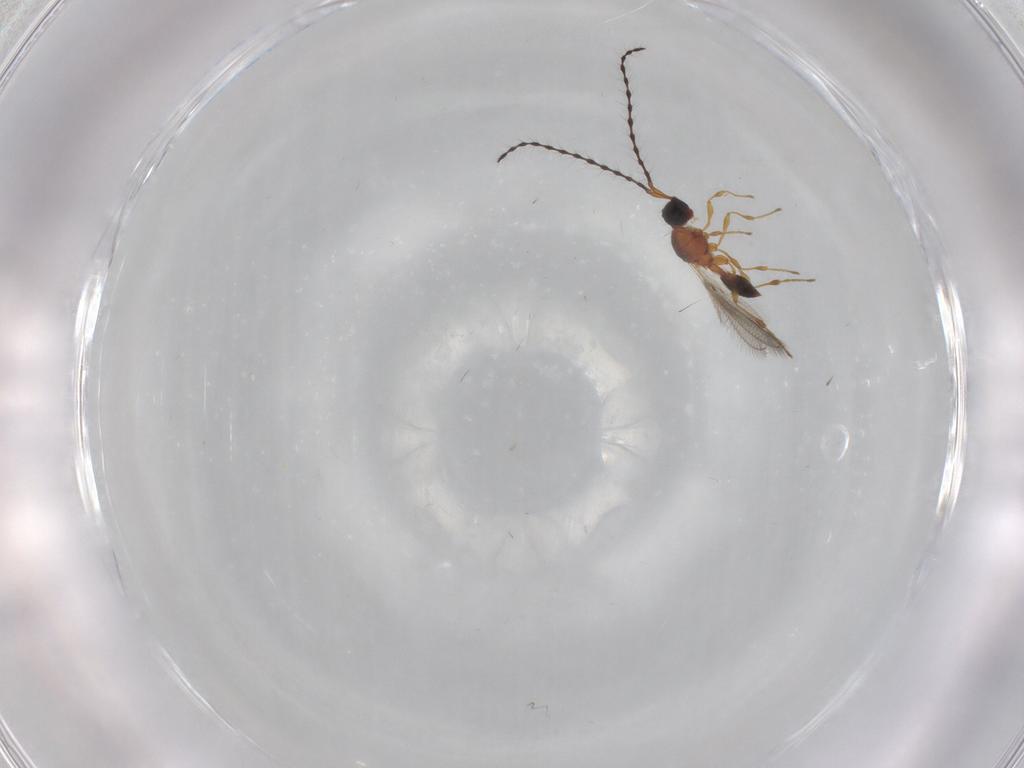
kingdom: Animalia
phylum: Arthropoda
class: Insecta
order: Hymenoptera
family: Diapriidae
